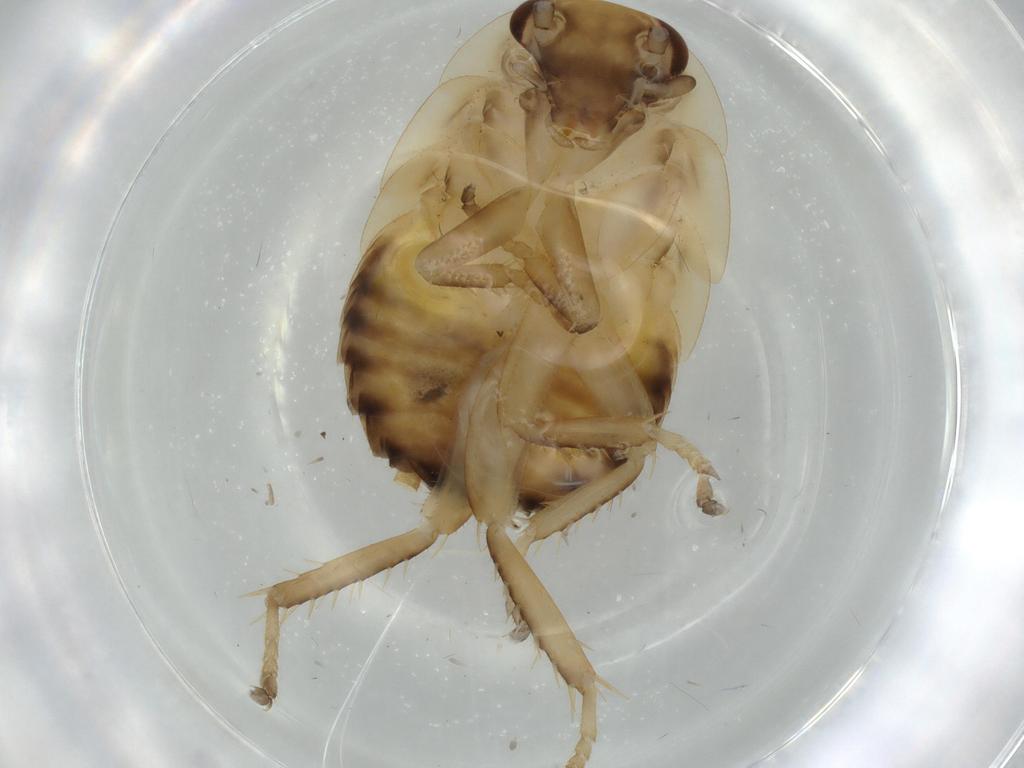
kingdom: Animalia
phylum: Arthropoda
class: Insecta
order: Blattodea
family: Ectobiidae
